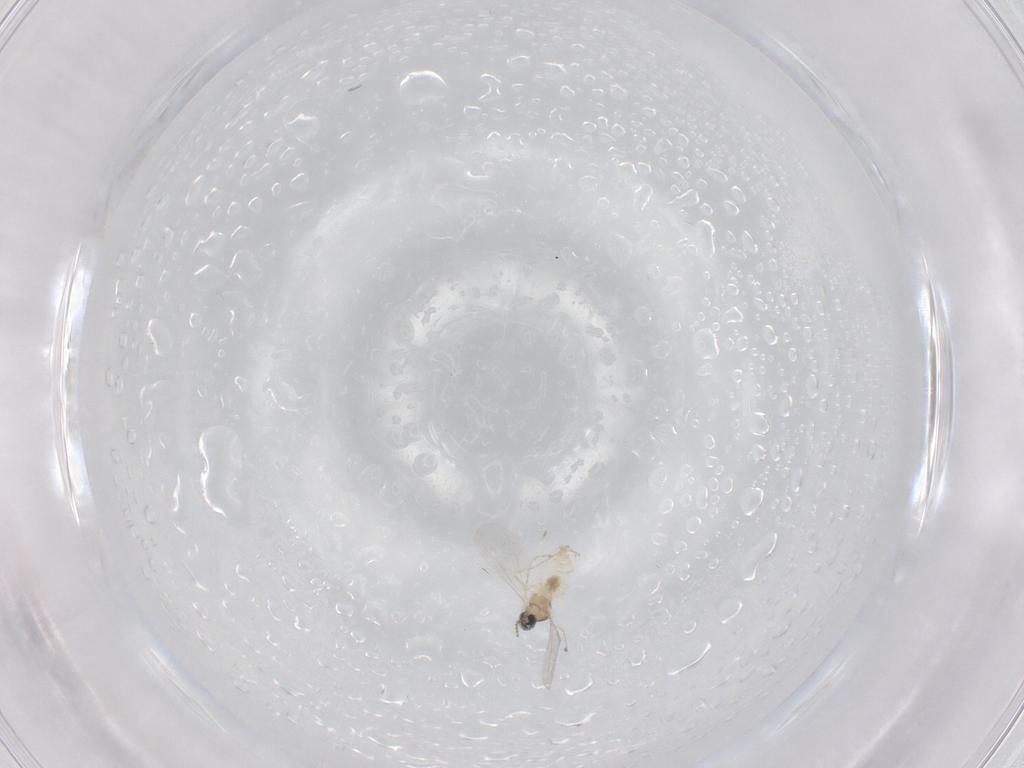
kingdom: Animalia
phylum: Arthropoda
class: Insecta
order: Diptera
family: Cecidomyiidae
